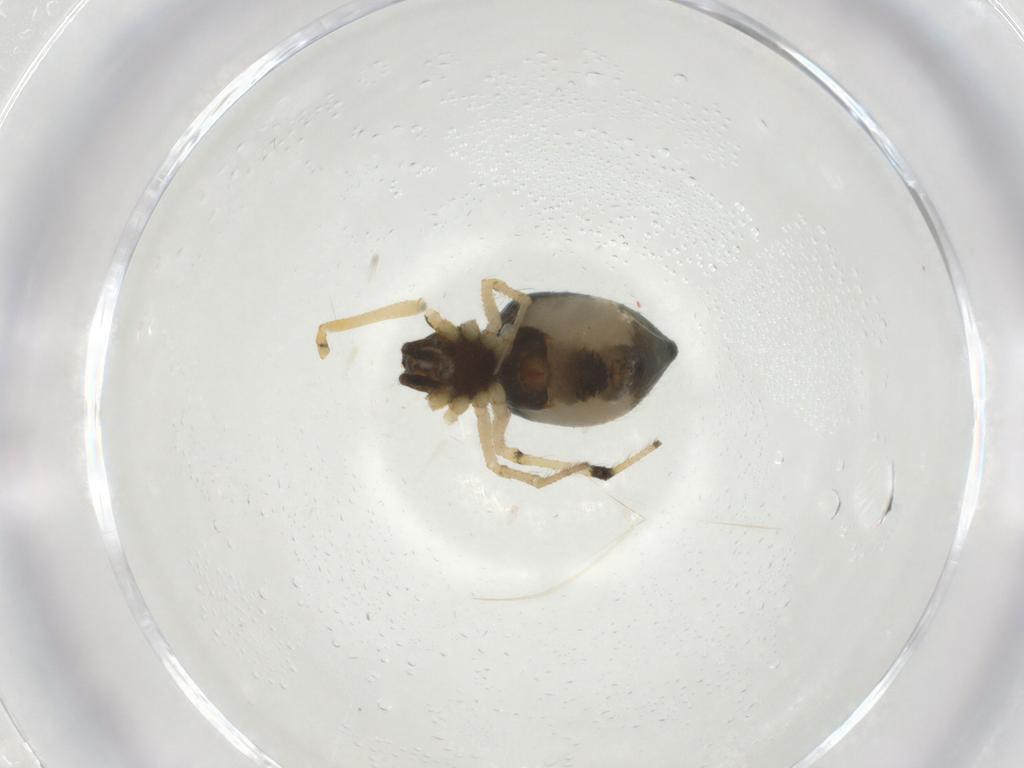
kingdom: Animalia
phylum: Arthropoda
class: Arachnida
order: Araneae
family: Theridiidae
